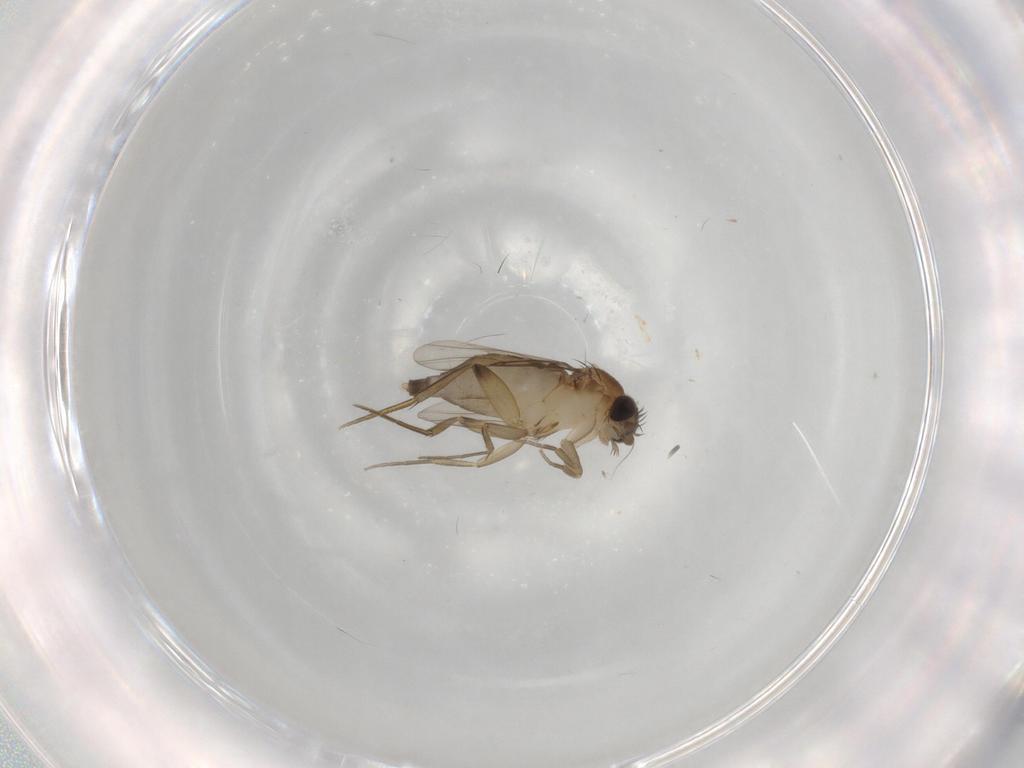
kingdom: Animalia
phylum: Arthropoda
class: Insecta
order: Diptera
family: Phoridae
